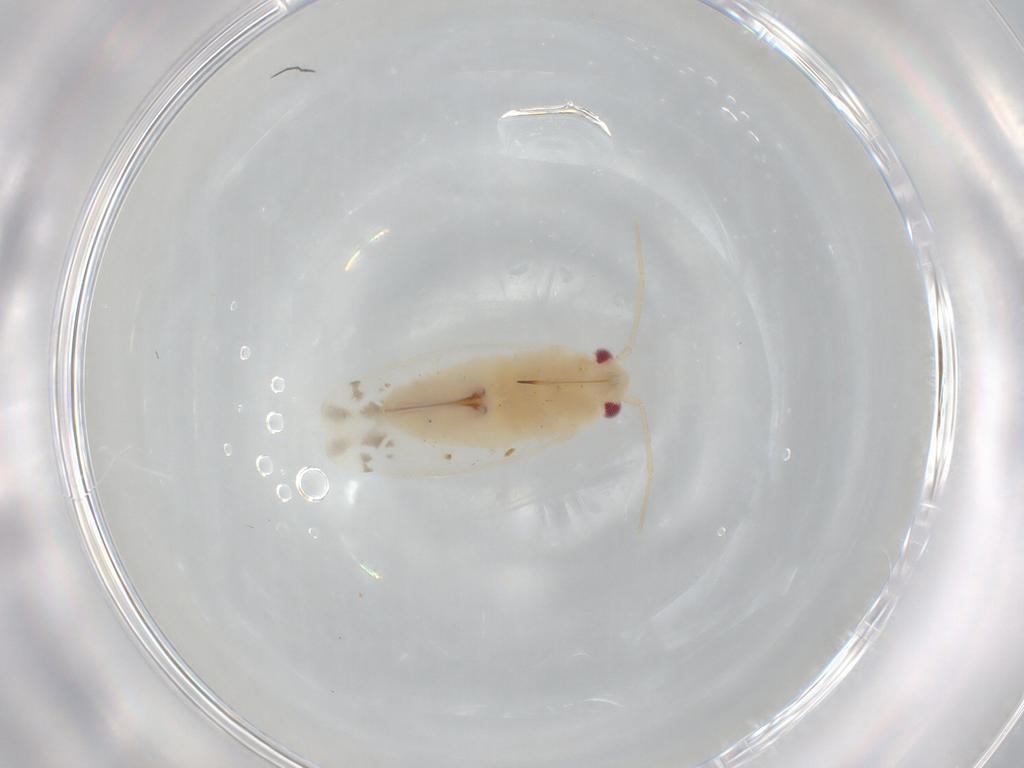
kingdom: Animalia
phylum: Arthropoda
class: Insecta
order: Hemiptera
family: Miridae
